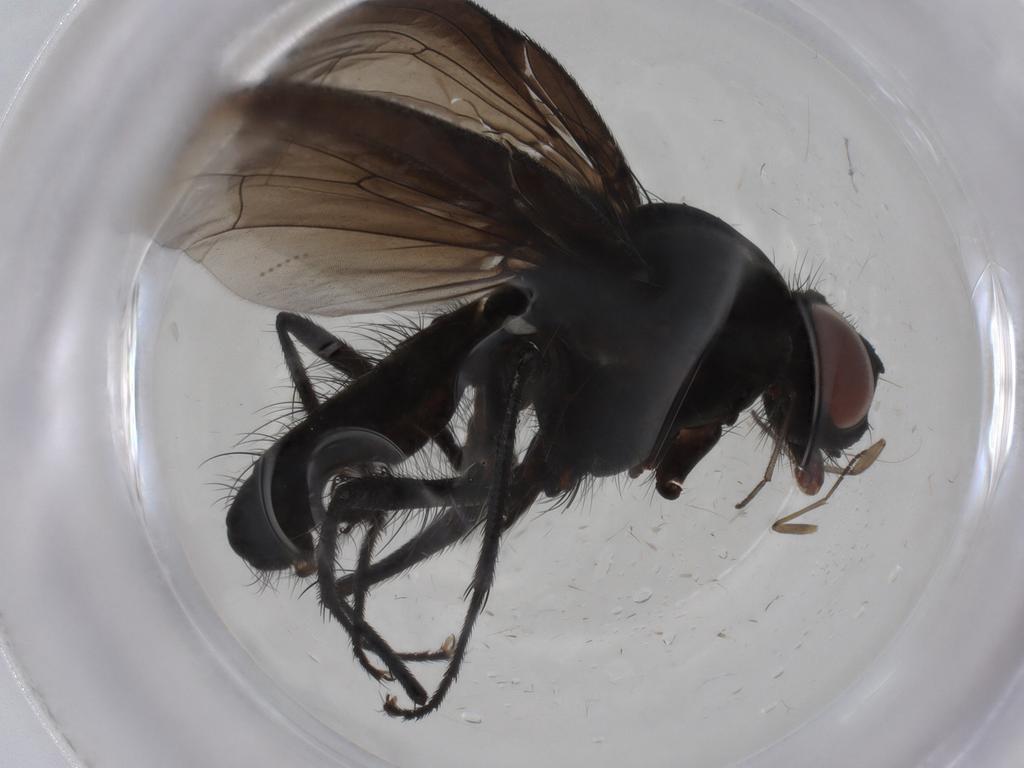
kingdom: Animalia
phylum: Arthropoda
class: Insecta
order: Diptera
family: Anthomyiidae
